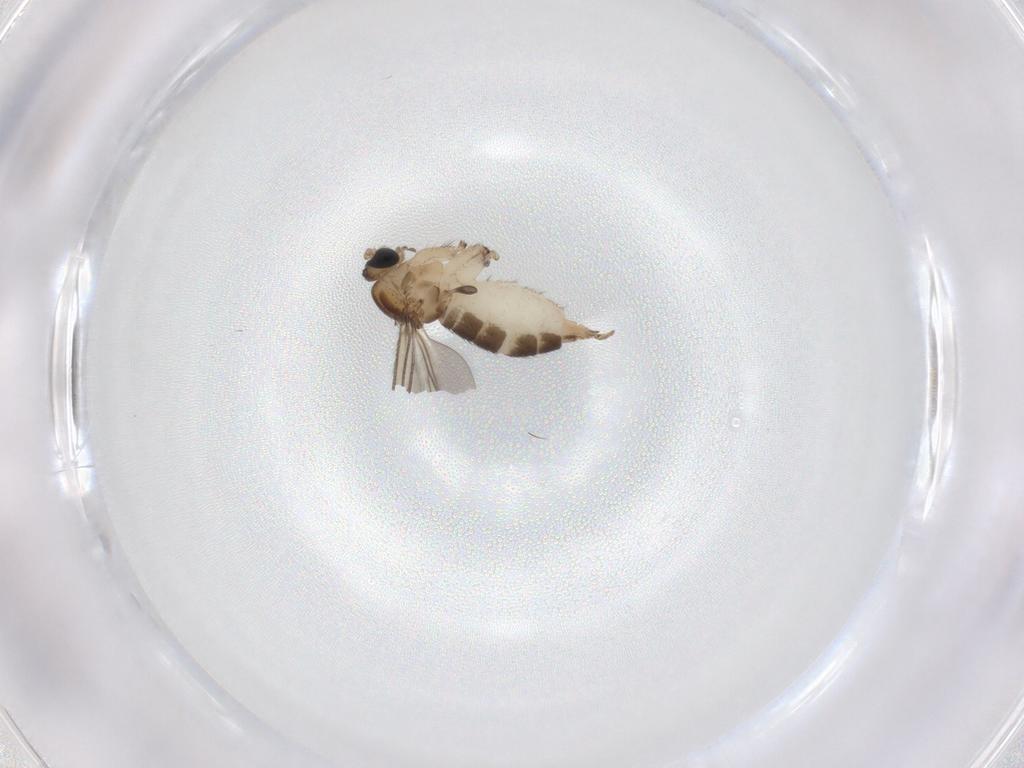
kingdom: Animalia
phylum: Arthropoda
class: Insecta
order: Diptera
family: Sciaridae
